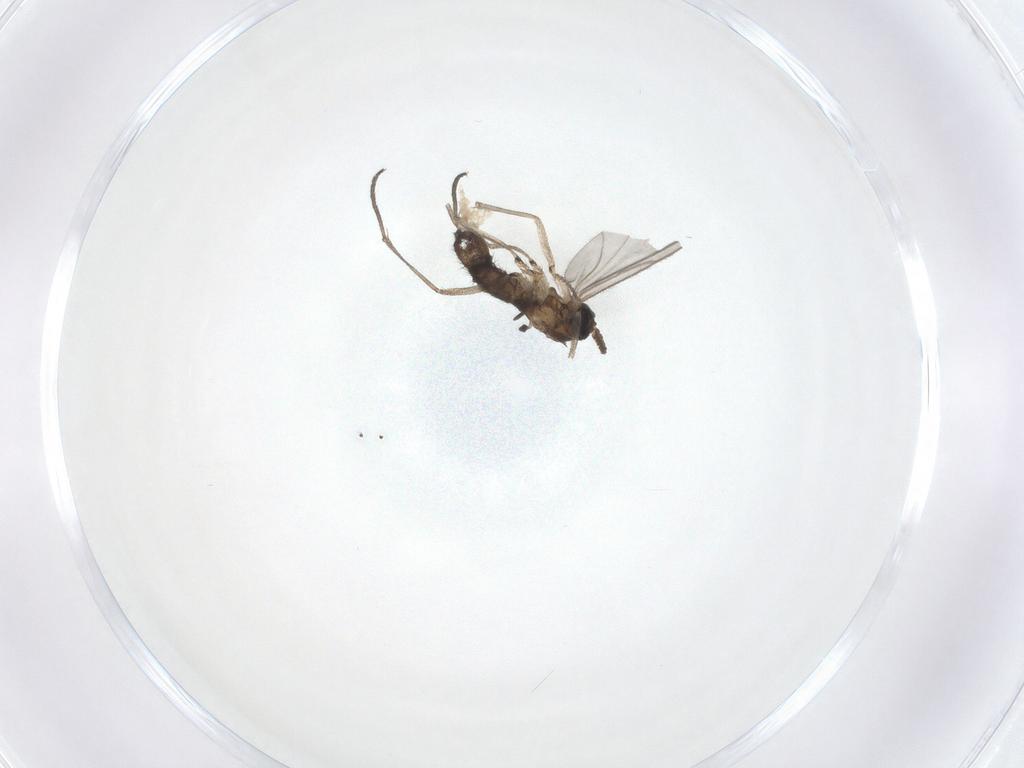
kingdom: Animalia
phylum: Arthropoda
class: Insecta
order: Diptera
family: Cecidomyiidae
